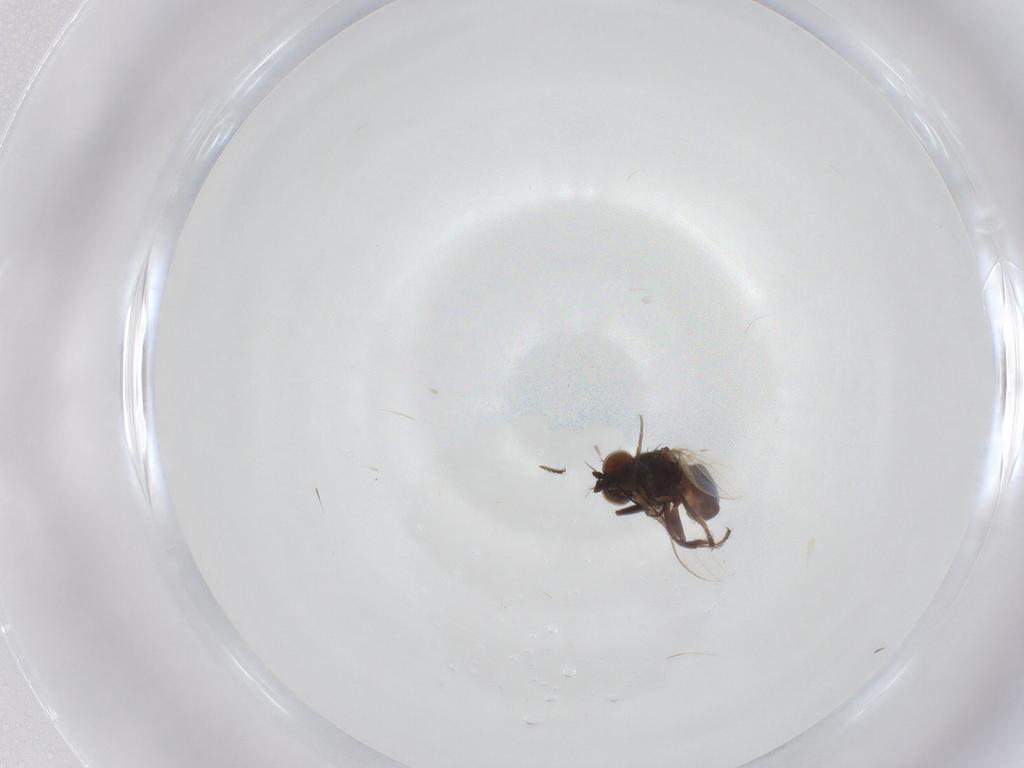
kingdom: Animalia
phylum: Arthropoda
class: Insecta
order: Diptera
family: Ephydridae
